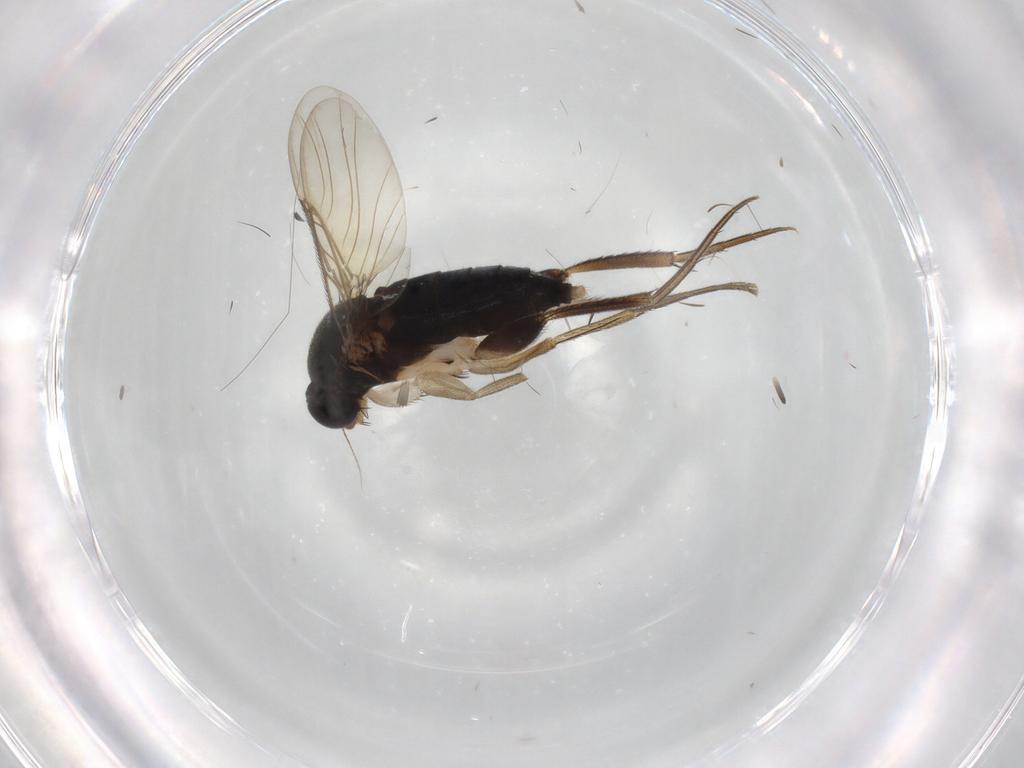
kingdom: Animalia
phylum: Arthropoda
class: Insecta
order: Diptera
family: Phoridae
